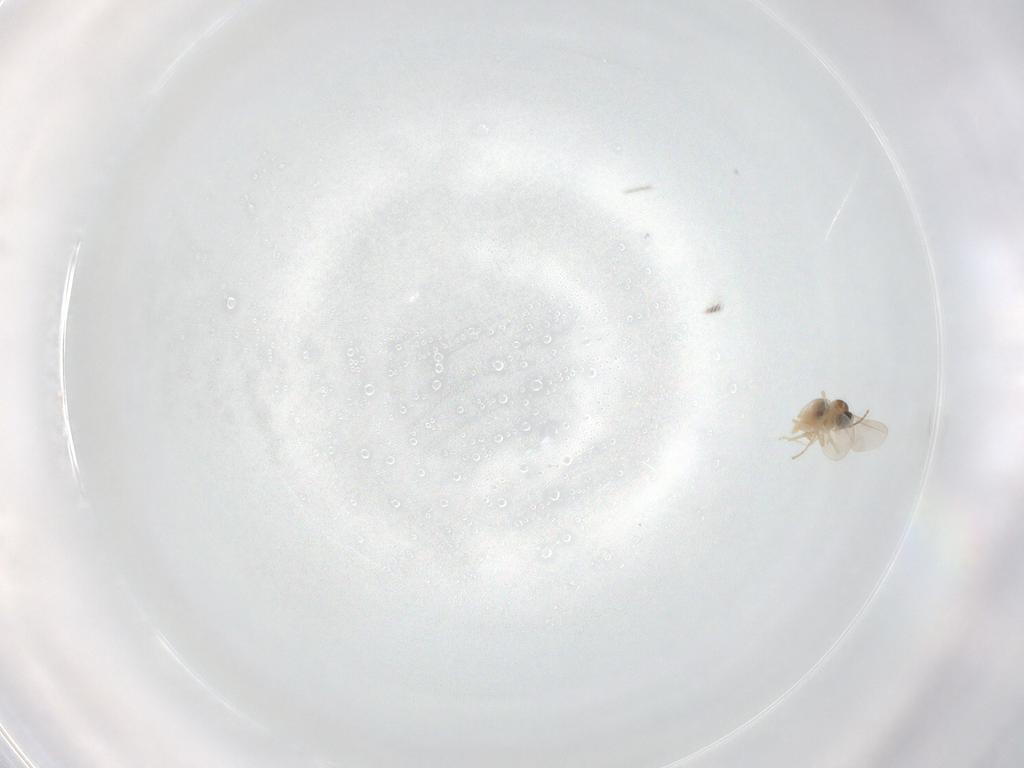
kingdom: Animalia
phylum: Arthropoda
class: Insecta
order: Diptera
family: Cecidomyiidae
